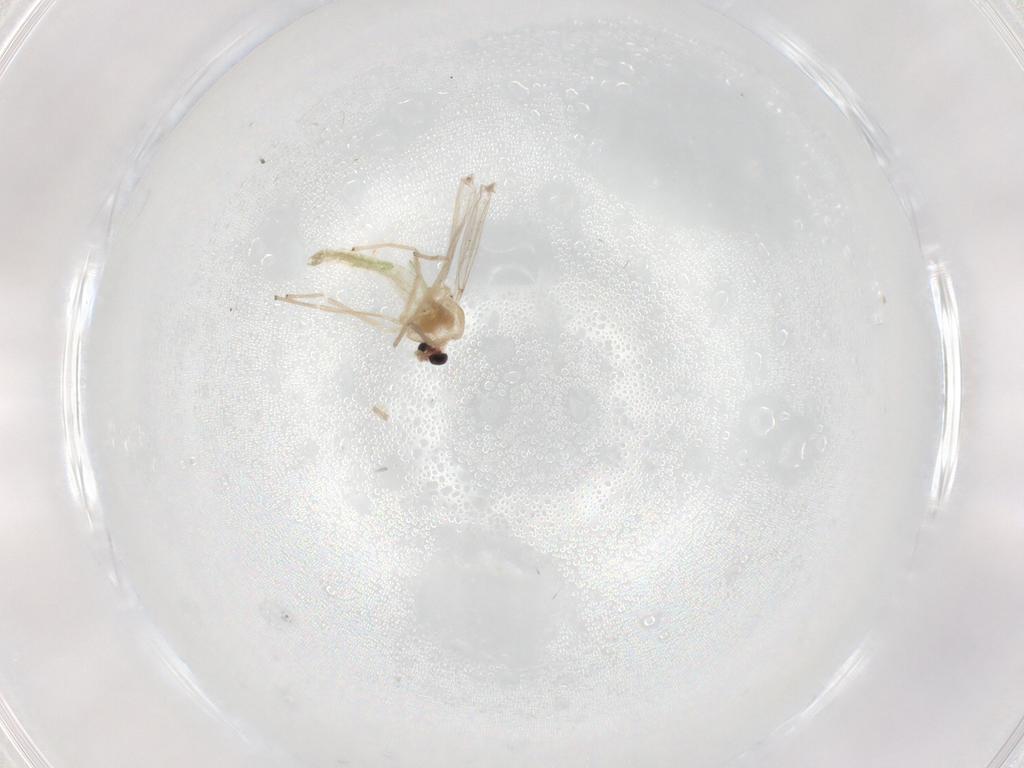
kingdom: Animalia
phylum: Arthropoda
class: Insecta
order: Diptera
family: Chironomidae
